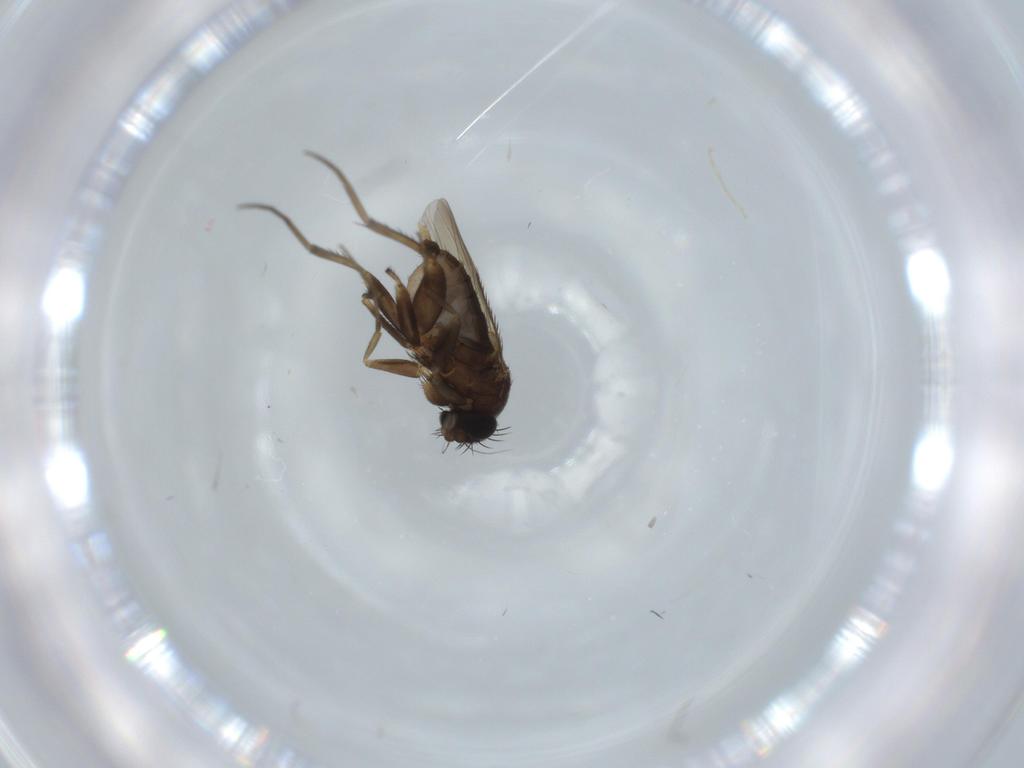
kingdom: Animalia
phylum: Arthropoda
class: Insecta
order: Diptera
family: Phoridae
